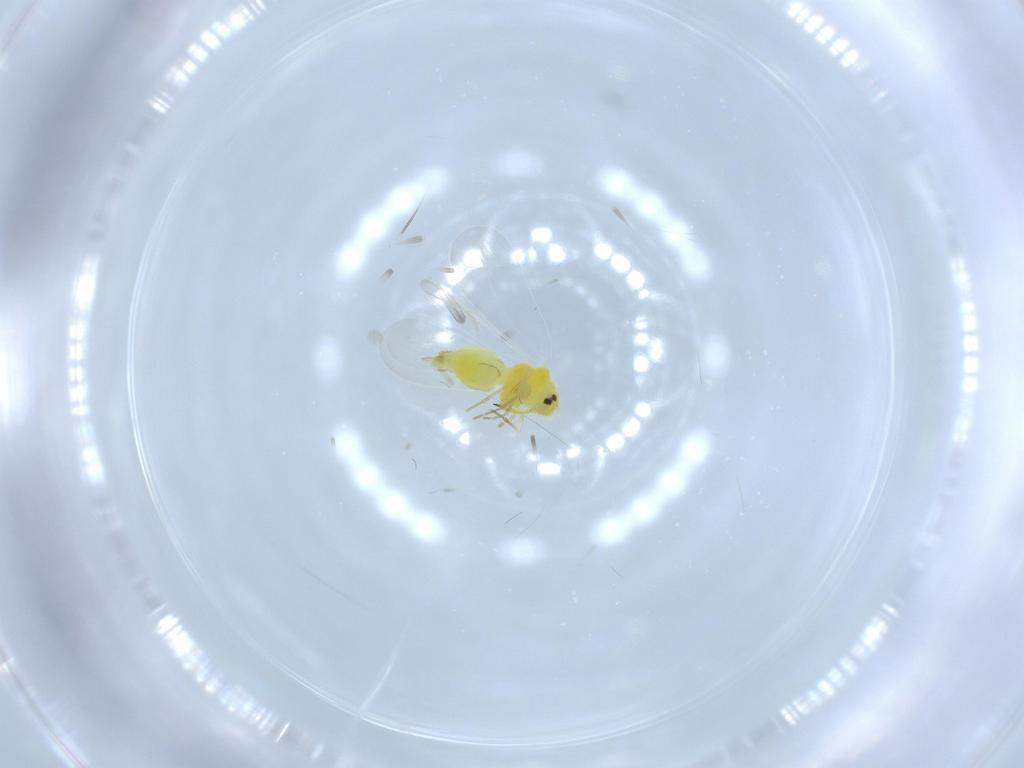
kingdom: Animalia
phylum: Arthropoda
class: Insecta
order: Hemiptera
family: Aleyrodidae
